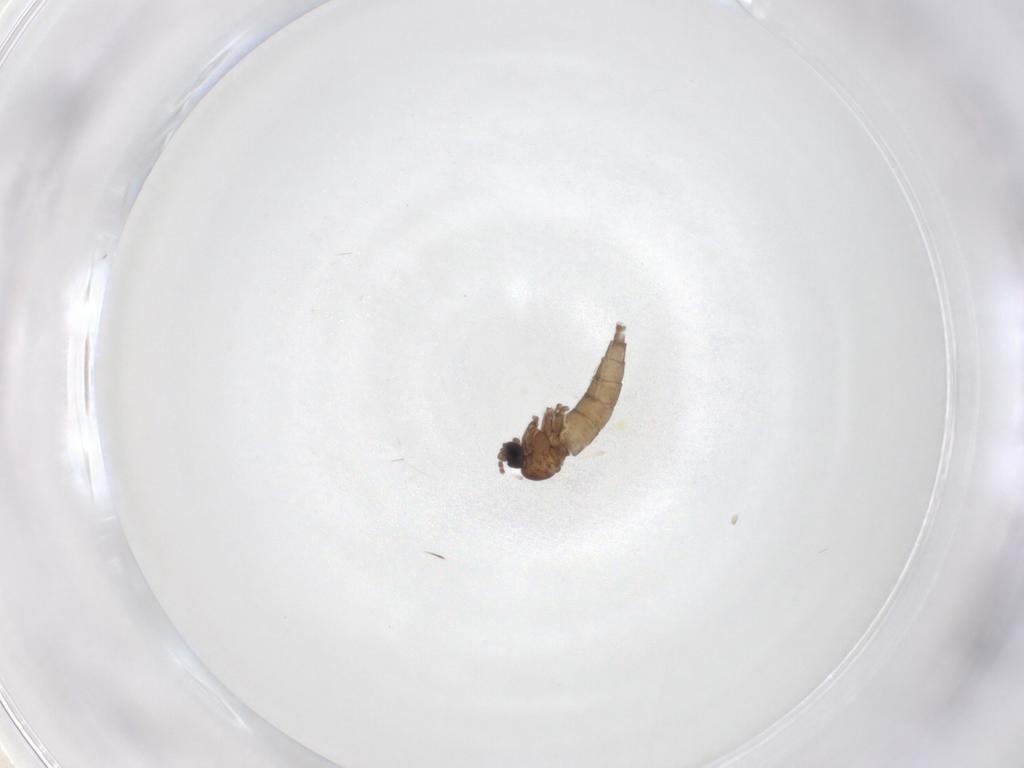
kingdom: Animalia
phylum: Arthropoda
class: Insecta
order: Diptera
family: Sciaridae
